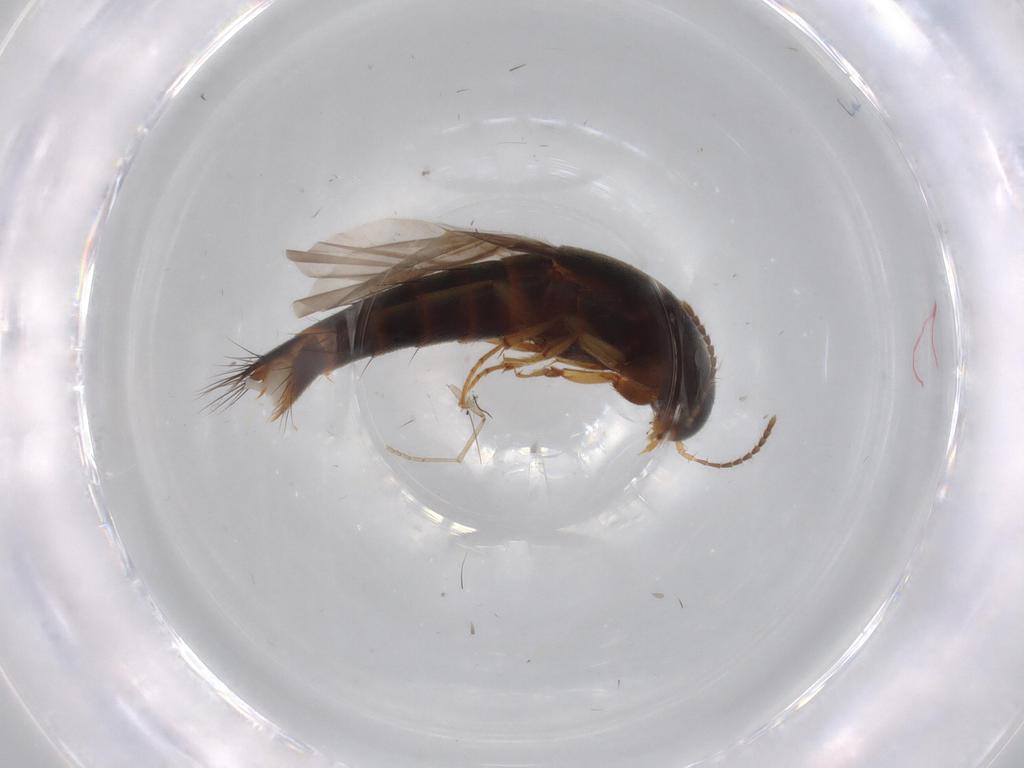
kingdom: Animalia
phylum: Arthropoda
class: Insecta
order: Coleoptera
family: Staphylinidae
